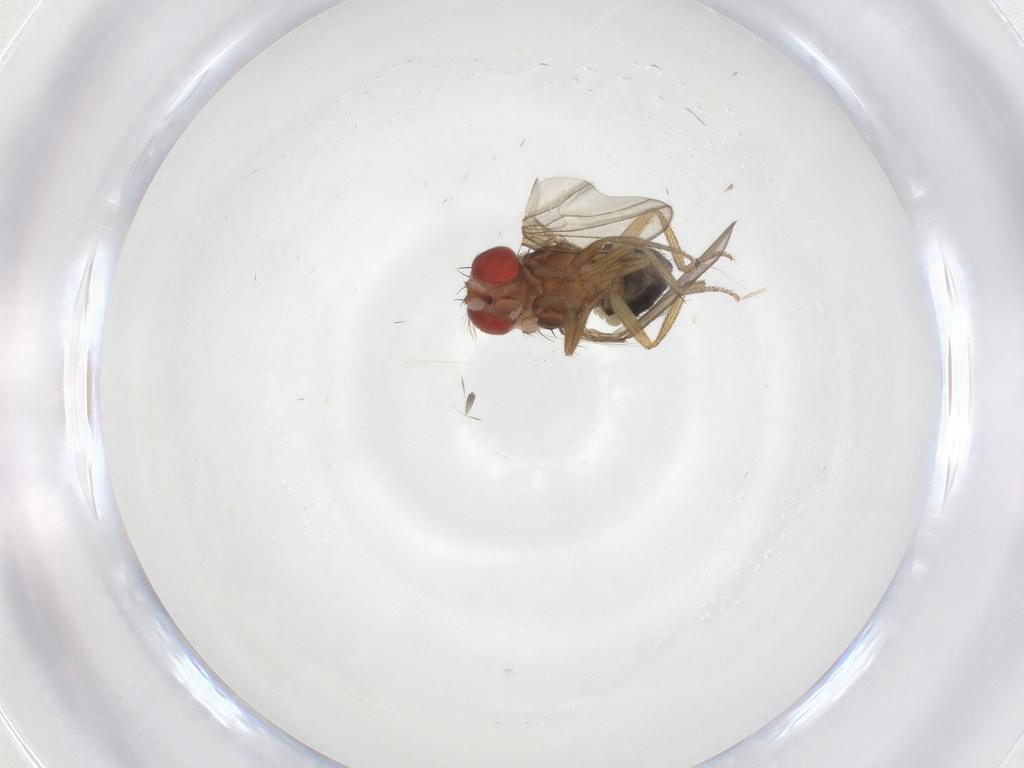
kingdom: Animalia
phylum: Arthropoda
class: Insecta
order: Diptera
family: Drosophilidae
